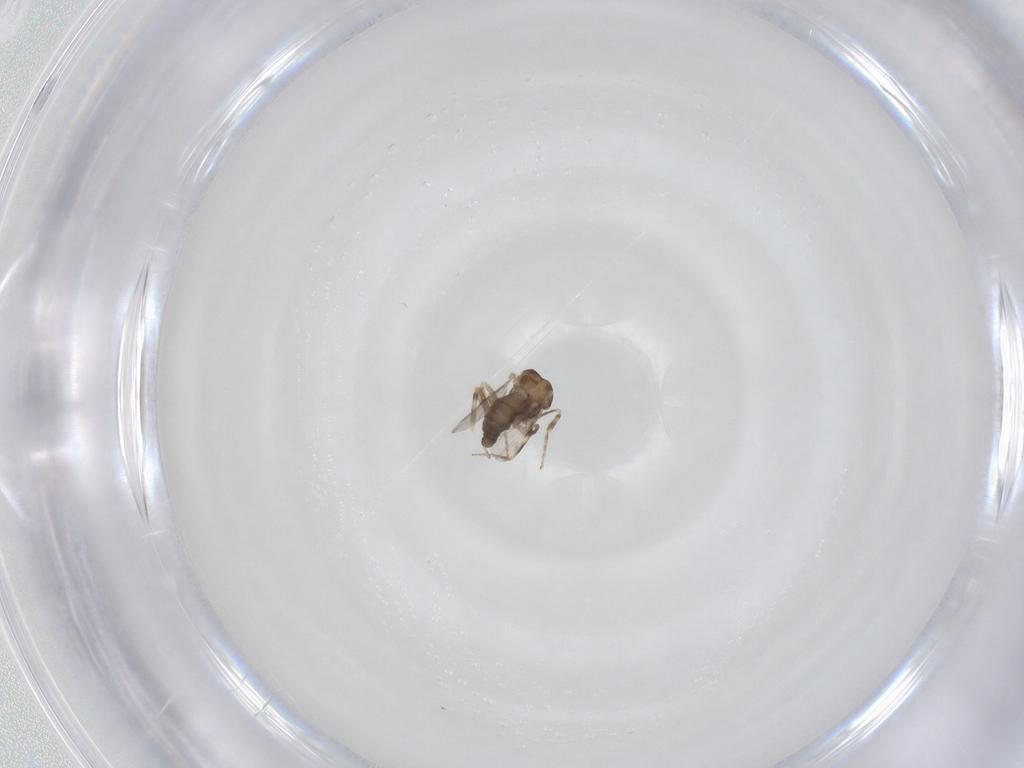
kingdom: Animalia
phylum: Arthropoda
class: Insecta
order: Diptera
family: Ceratopogonidae
